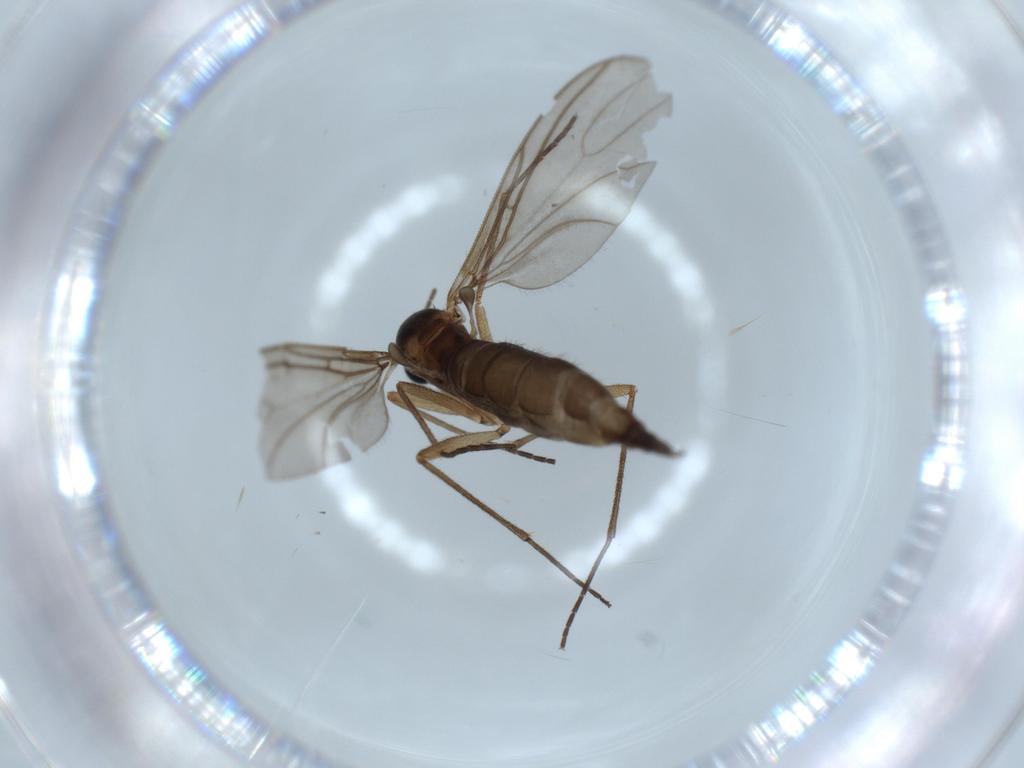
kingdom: Animalia
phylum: Arthropoda
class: Insecta
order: Diptera
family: Sciaridae
